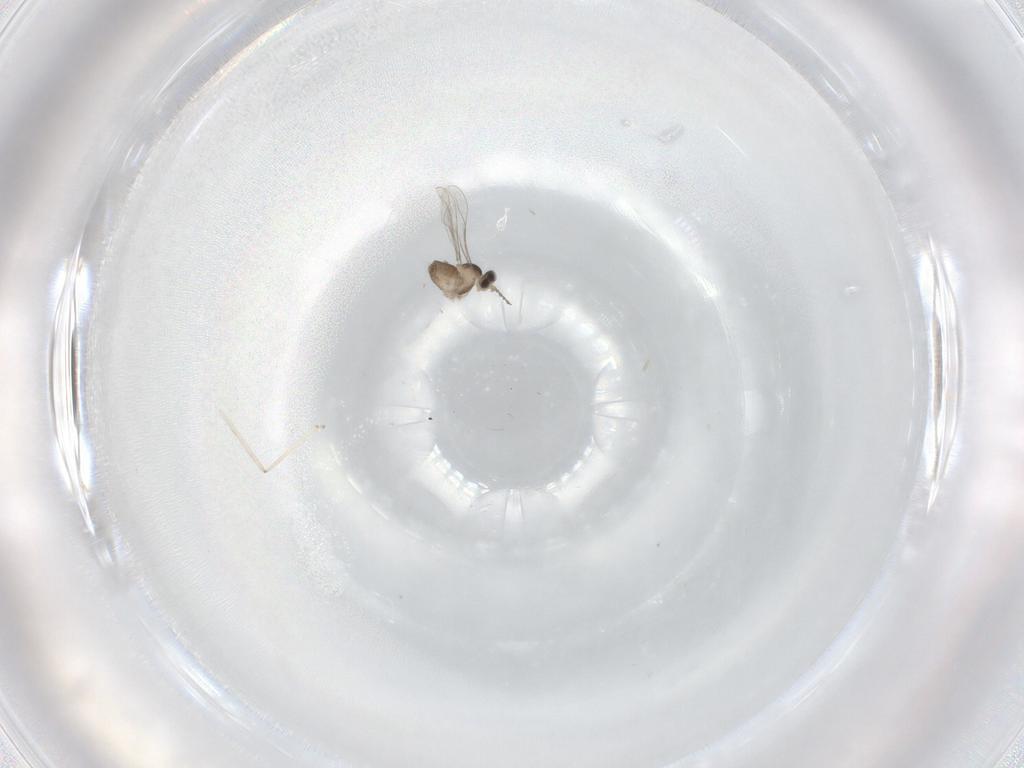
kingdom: Animalia
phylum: Arthropoda
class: Insecta
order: Diptera
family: Cecidomyiidae
